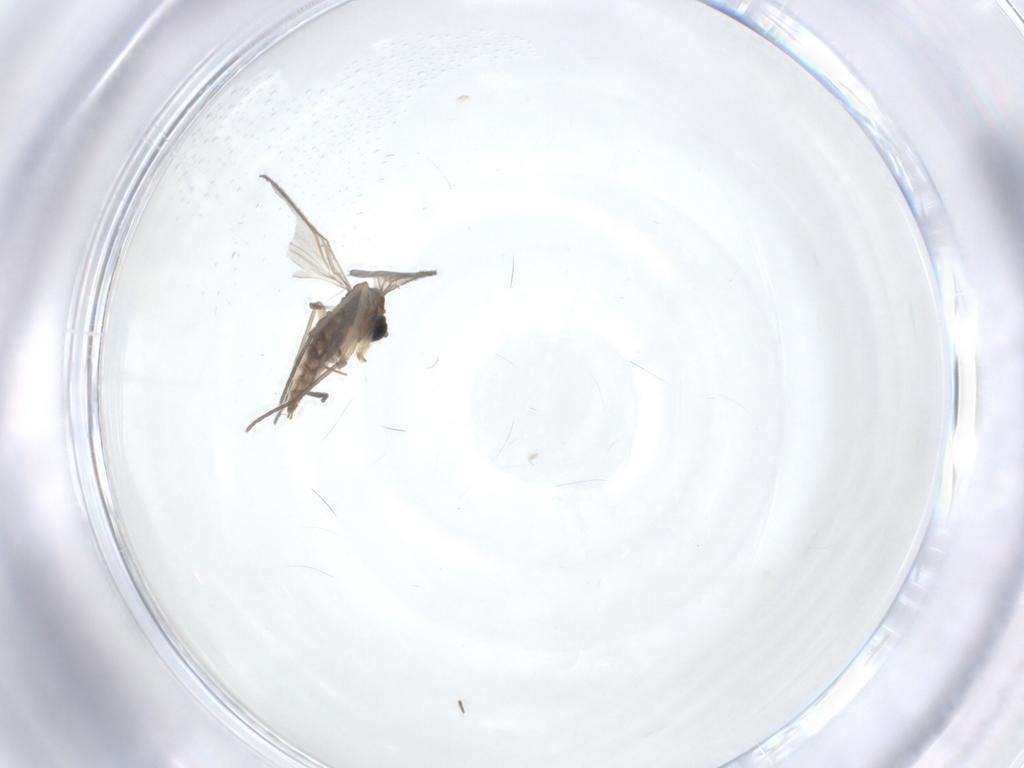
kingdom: Animalia
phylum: Arthropoda
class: Insecta
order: Diptera
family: Sciaridae
